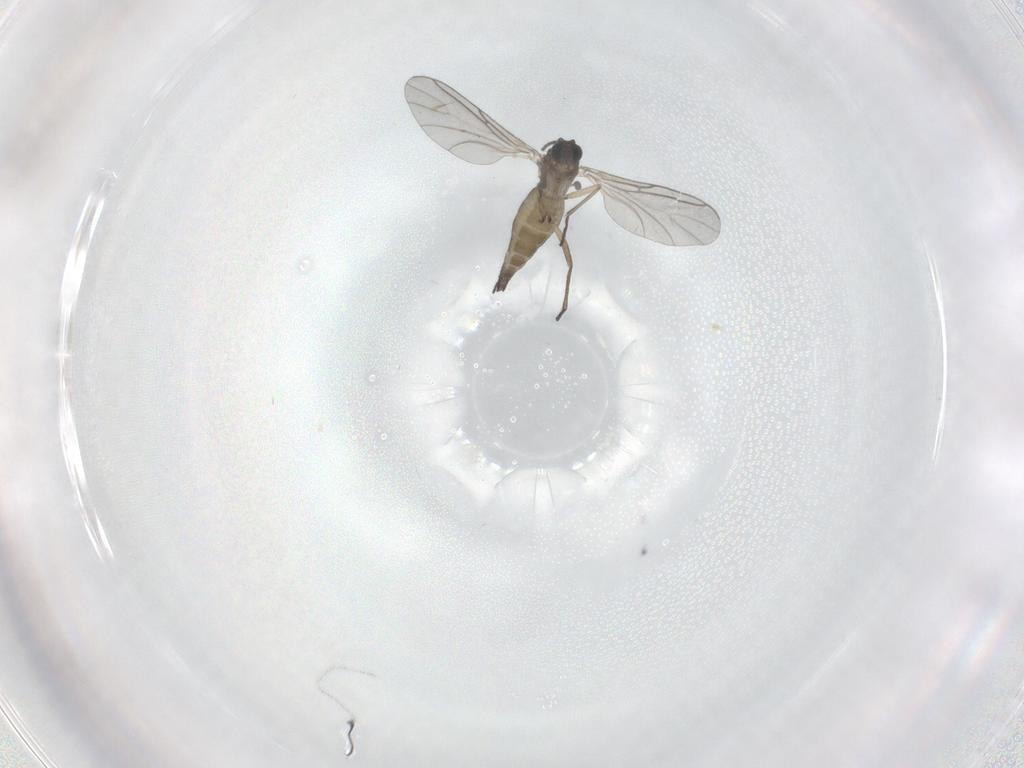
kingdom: Animalia
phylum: Arthropoda
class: Insecta
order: Diptera
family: Sciaridae
